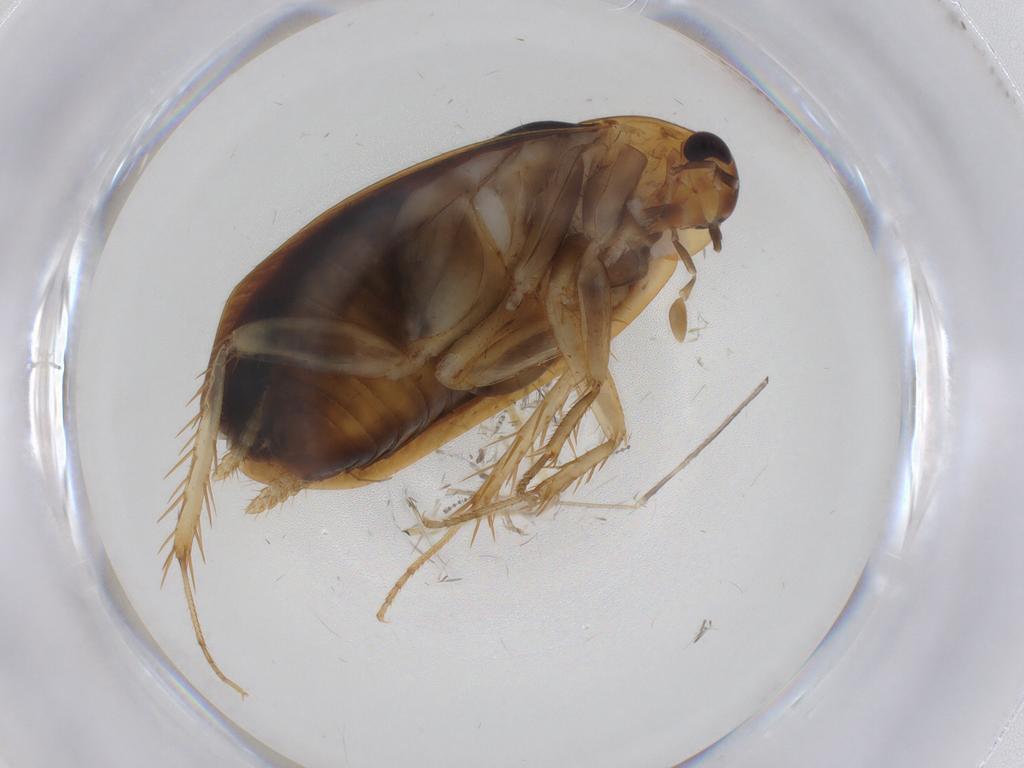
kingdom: Animalia
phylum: Arthropoda
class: Insecta
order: Blattodea
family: Tryonicidae
